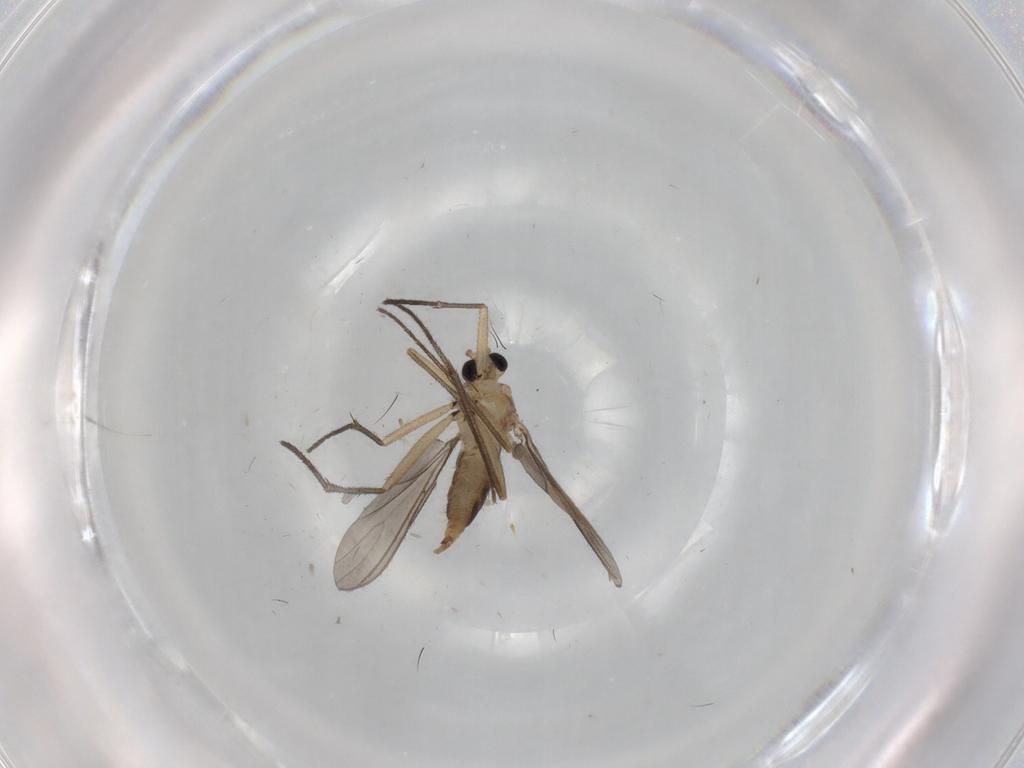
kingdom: Animalia
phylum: Arthropoda
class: Insecta
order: Diptera
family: Sciaridae
